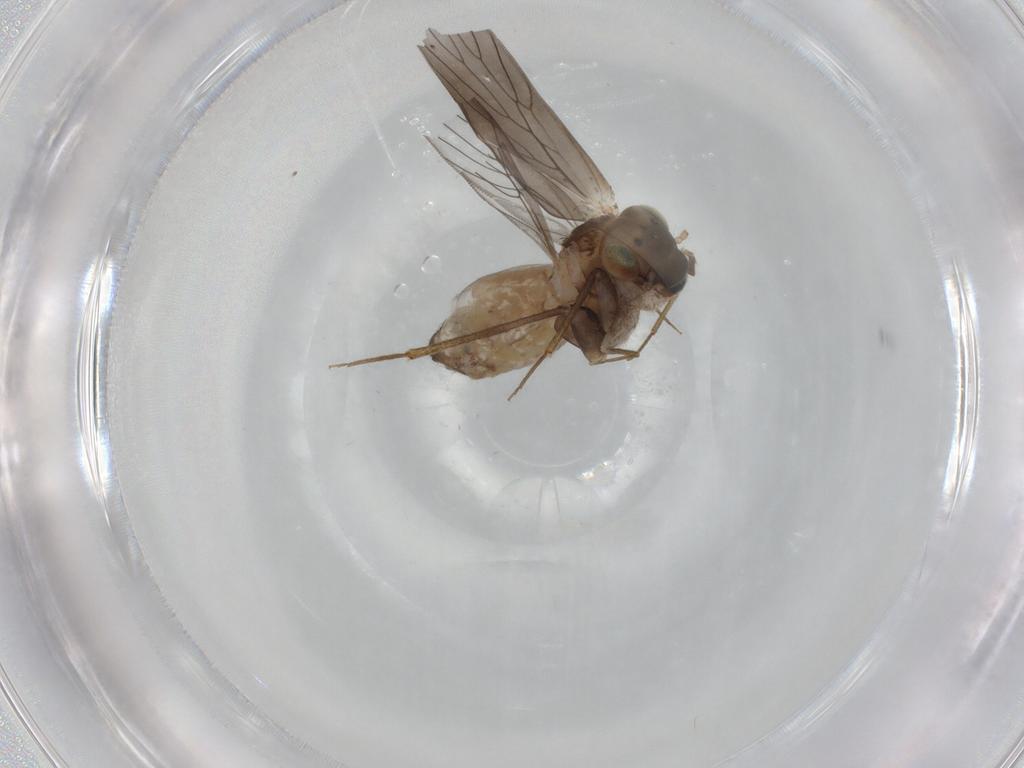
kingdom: Animalia
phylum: Arthropoda
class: Insecta
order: Psocodea
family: Lepidopsocidae
